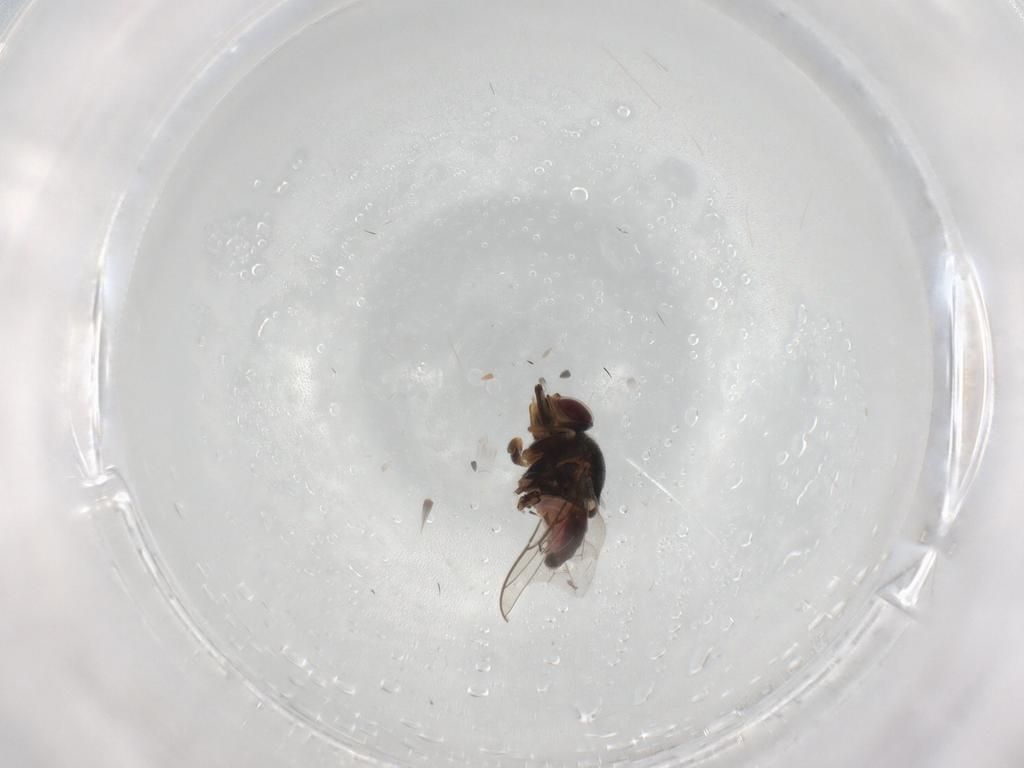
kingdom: Animalia
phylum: Arthropoda
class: Insecta
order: Diptera
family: Chloropidae
